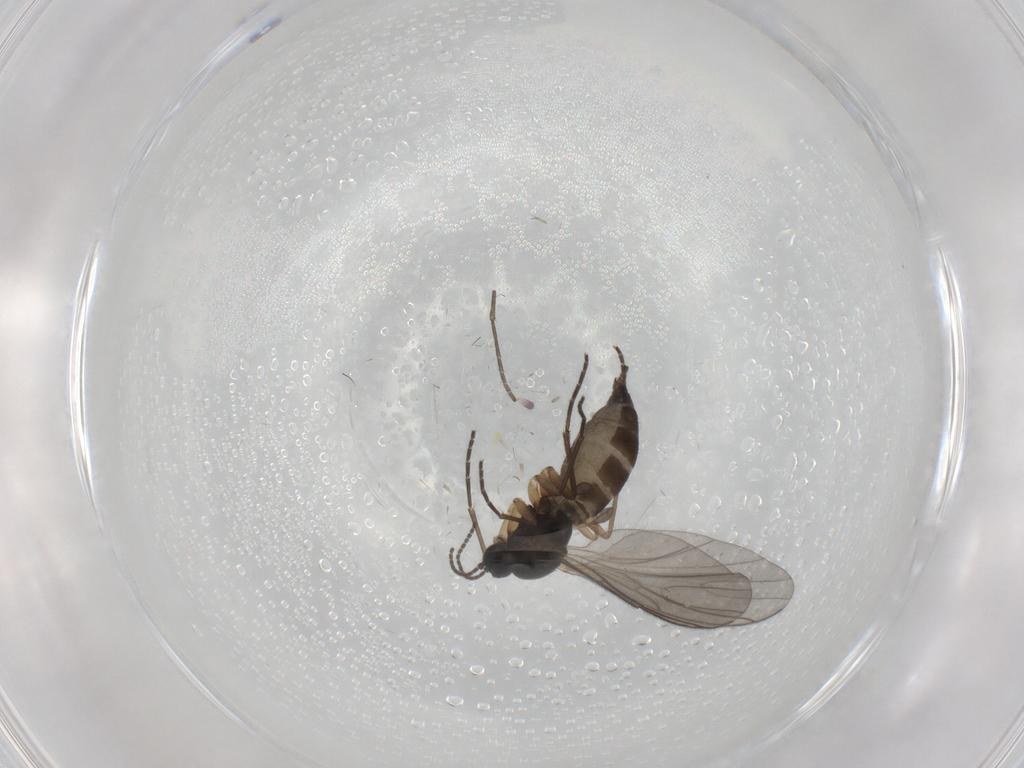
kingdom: Animalia
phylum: Arthropoda
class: Insecta
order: Diptera
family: Sciaridae
